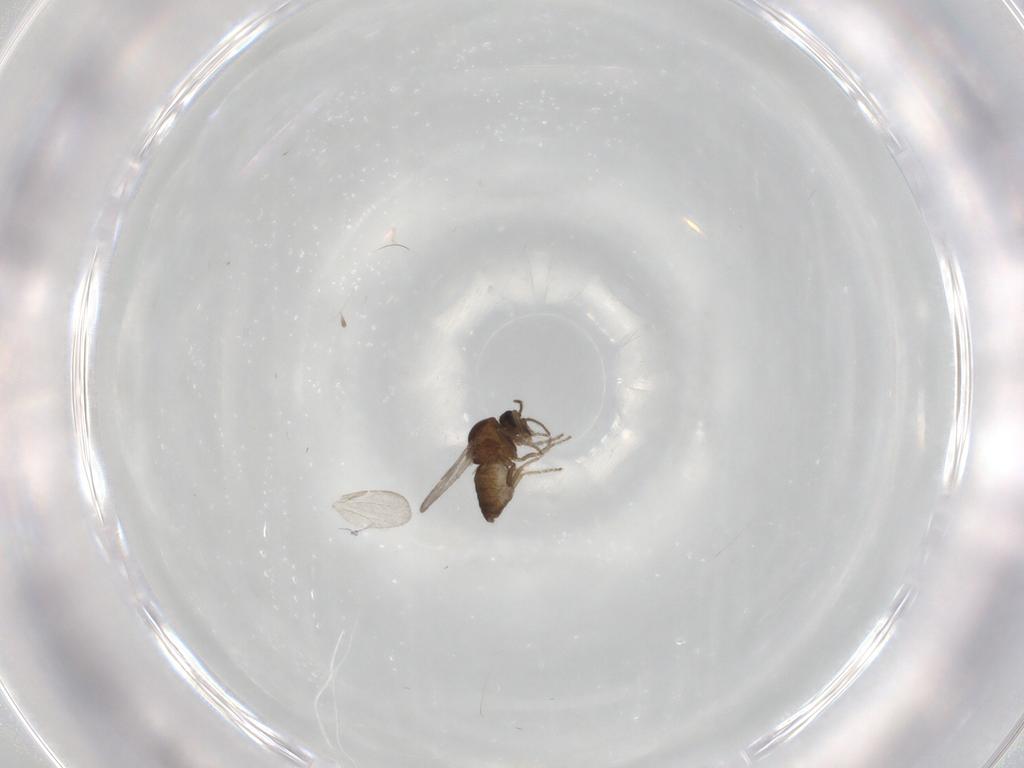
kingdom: Animalia
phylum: Arthropoda
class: Insecta
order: Diptera
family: Ceratopogonidae
